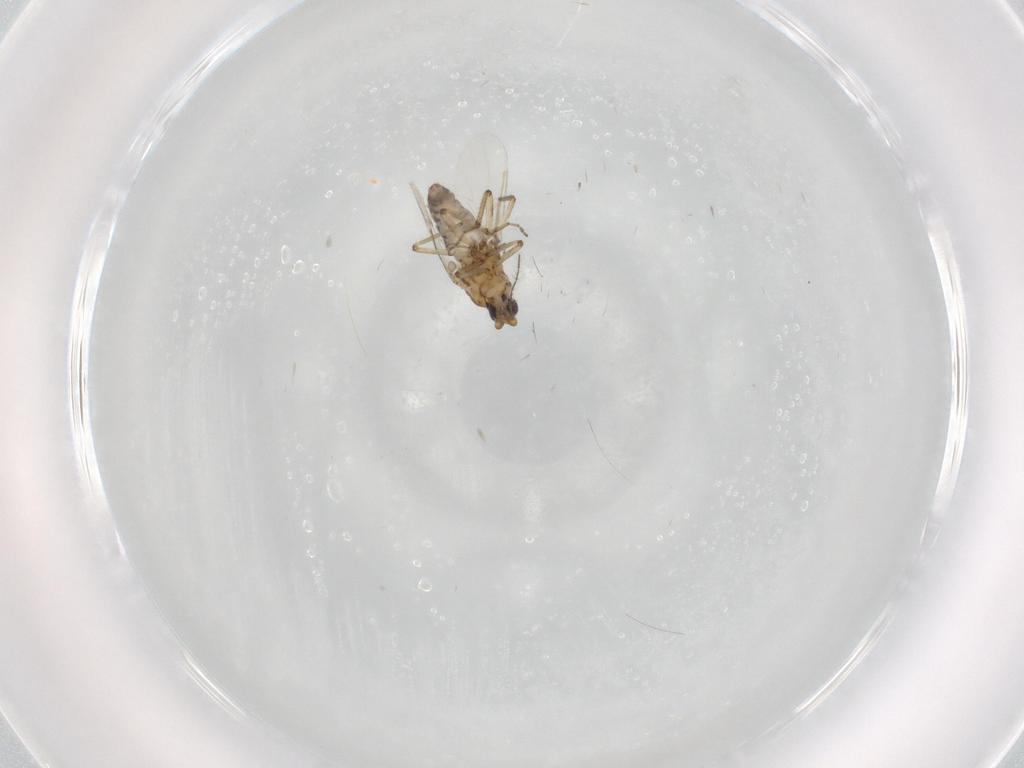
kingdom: Animalia
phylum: Arthropoda
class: Insecta
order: Diptera
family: Ceratopogonidae
